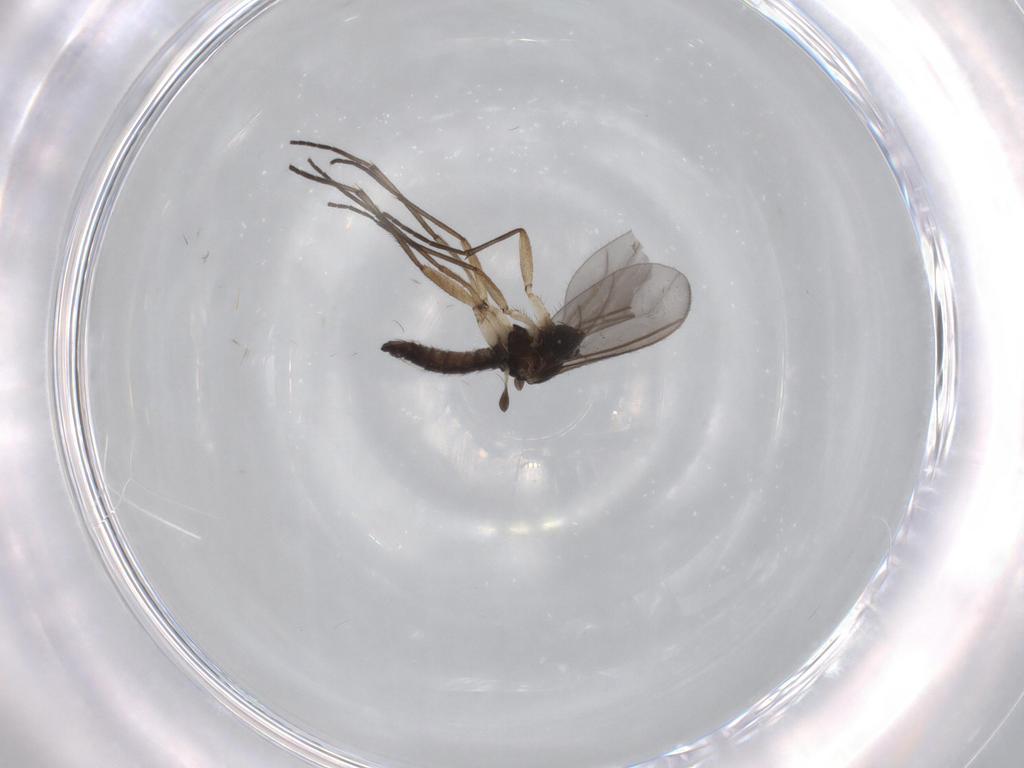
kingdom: Animalia
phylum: Arthropoda
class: Insecta
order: Diptera
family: Sciaridae
